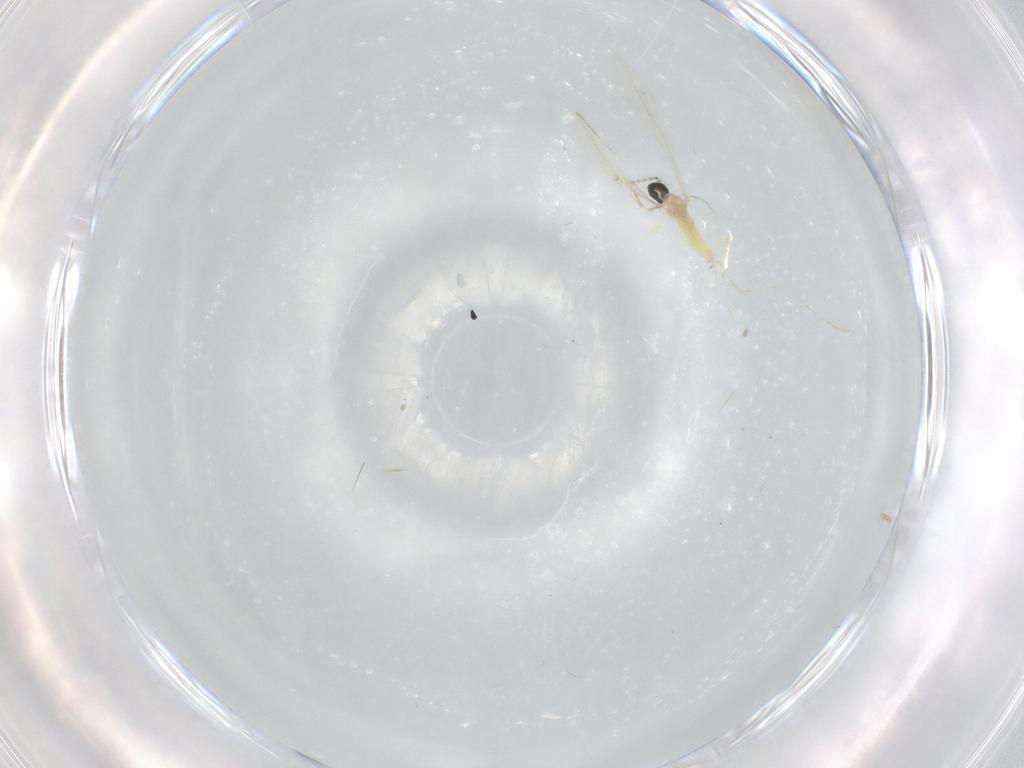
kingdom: Animalia
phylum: Arthropoda
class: Insecta
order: Diptera
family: Cecidomyiidae
